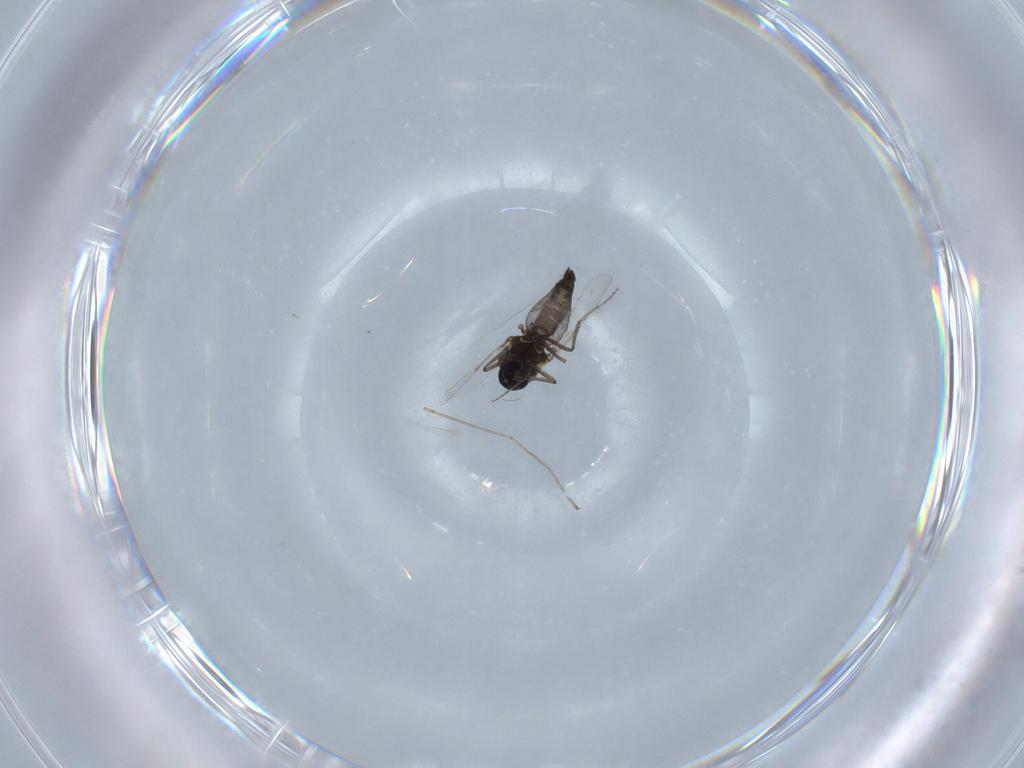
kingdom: Animalia
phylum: Arthropoda
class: Insecta
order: Diptera
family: Ceratopogonidae
